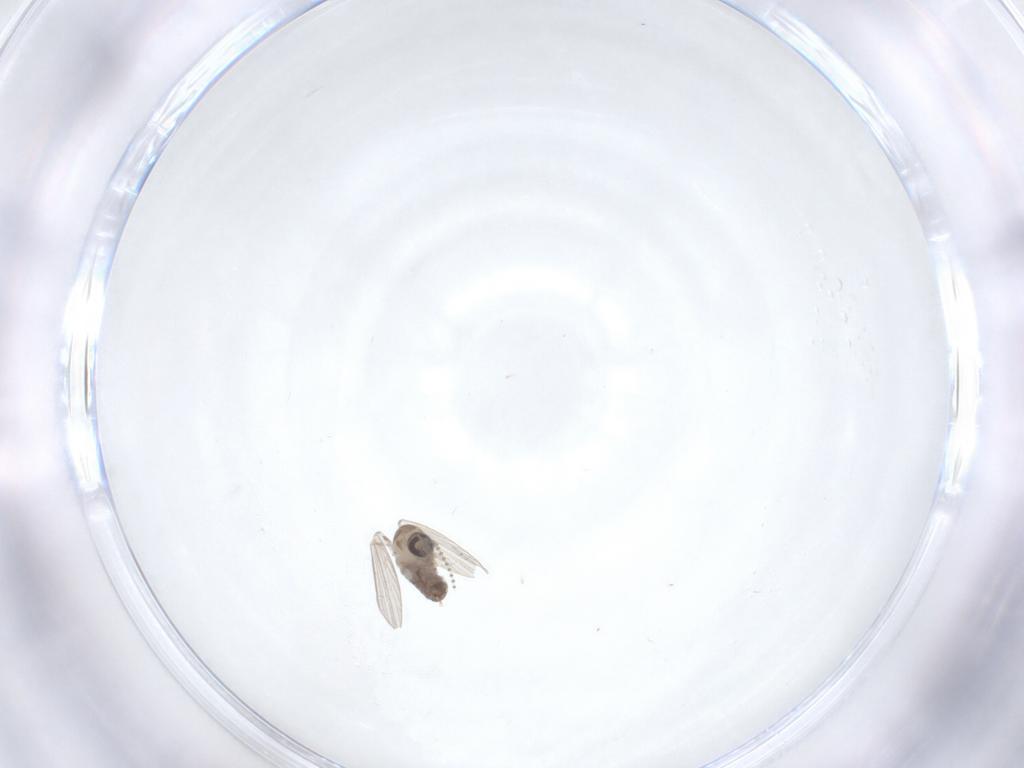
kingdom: Animalia
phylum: Arthropoda
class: Insecta
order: Diptera
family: Psychodidae
